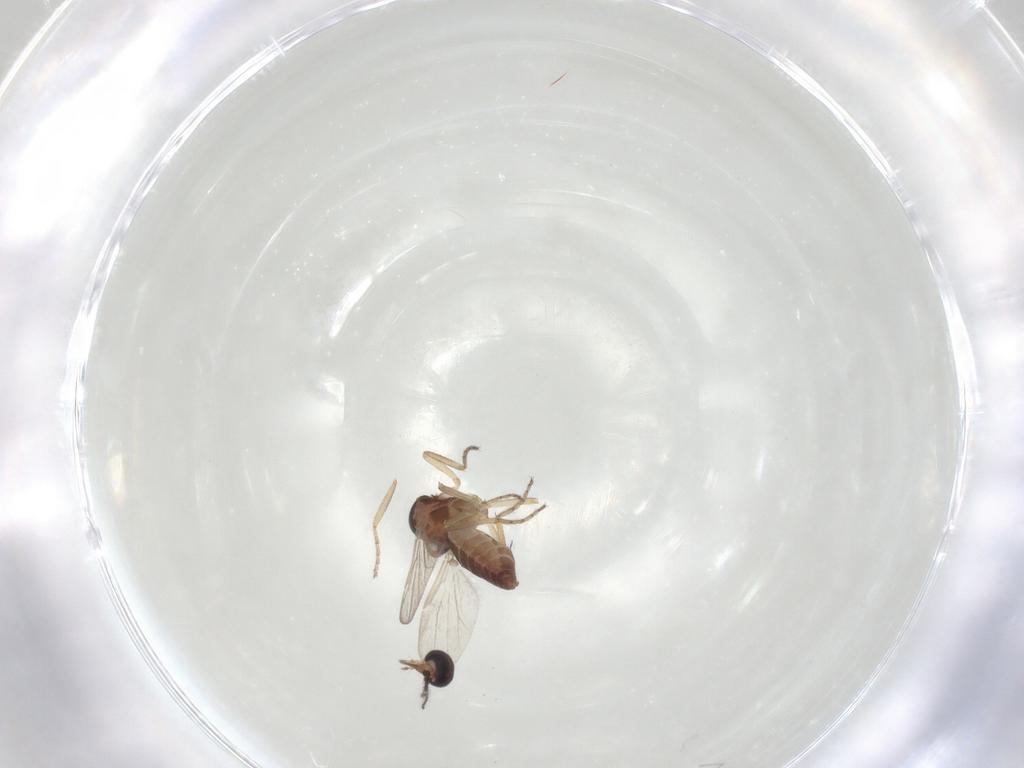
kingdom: Animalia
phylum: Arthropoda
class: Insecta
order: Diptera
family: Ceratopogonidae
